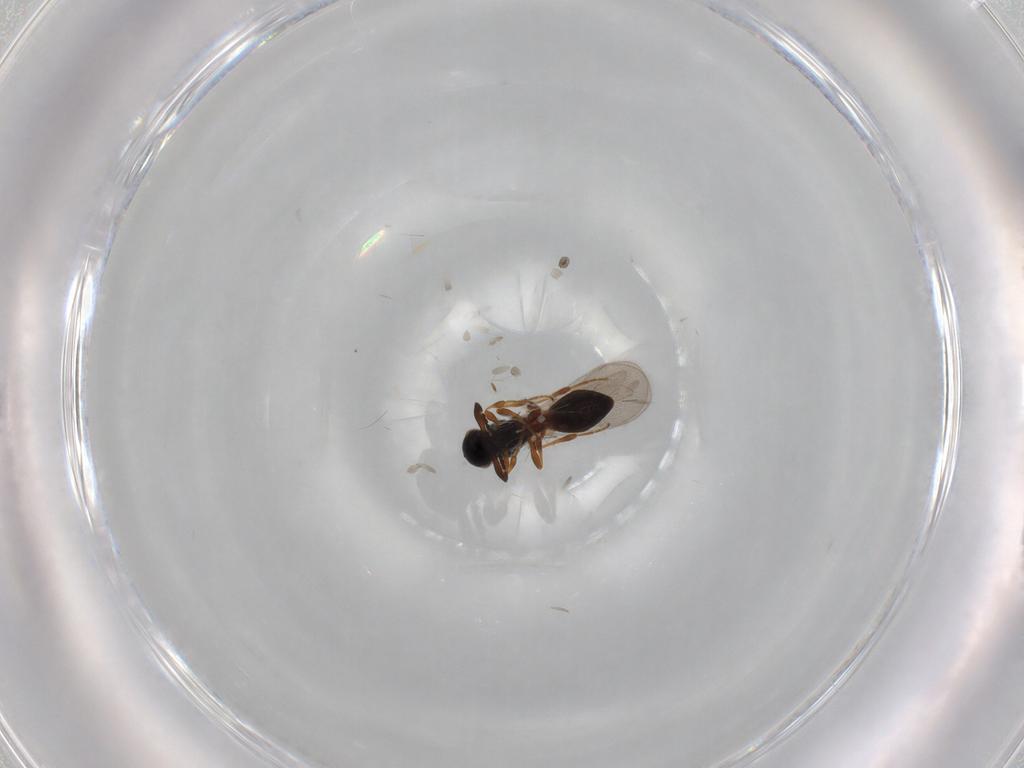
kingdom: Animalia
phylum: Arthropoda
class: Insecta
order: Hymenoptera
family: Platygastridae
